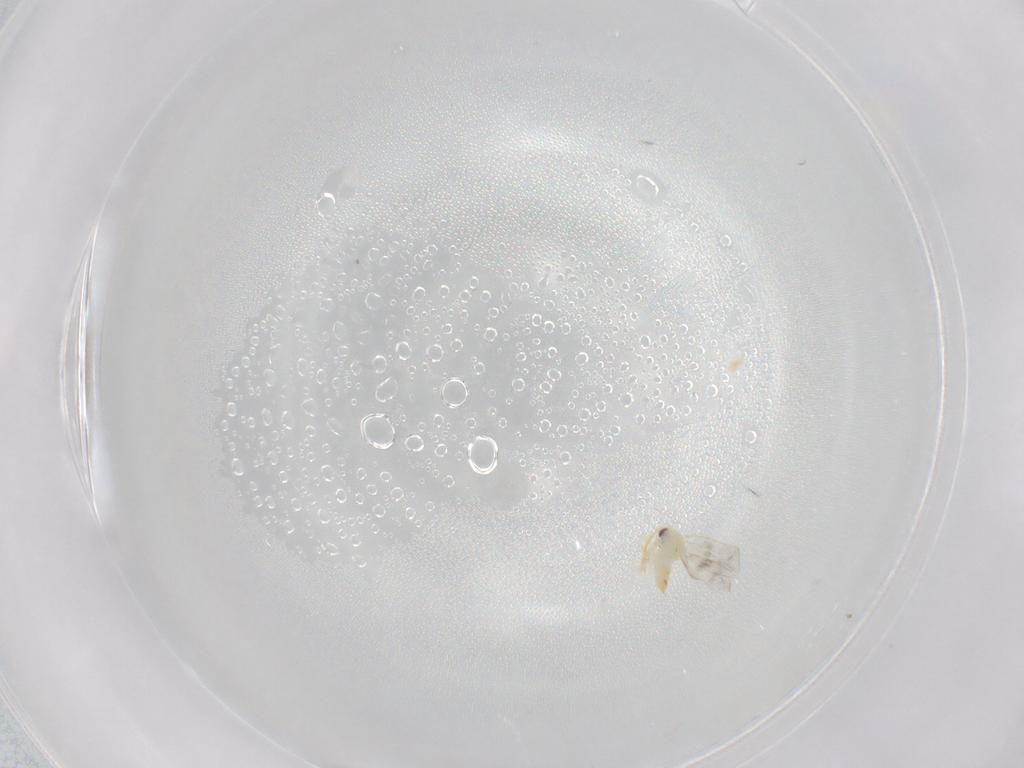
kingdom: Animalia
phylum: Arthropoda
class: Insecta
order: Hemiptera
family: Aleyrodidae
